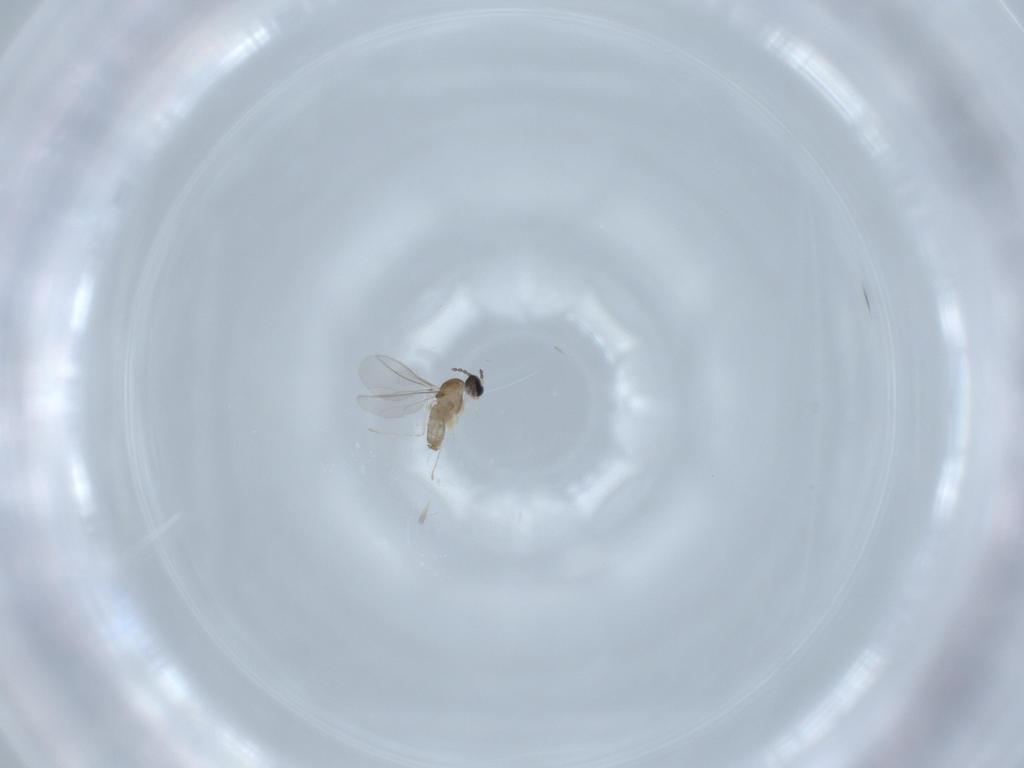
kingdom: Animalia
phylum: Arthropoda
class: Insecta
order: Diptera
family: Cecidomyiidae
